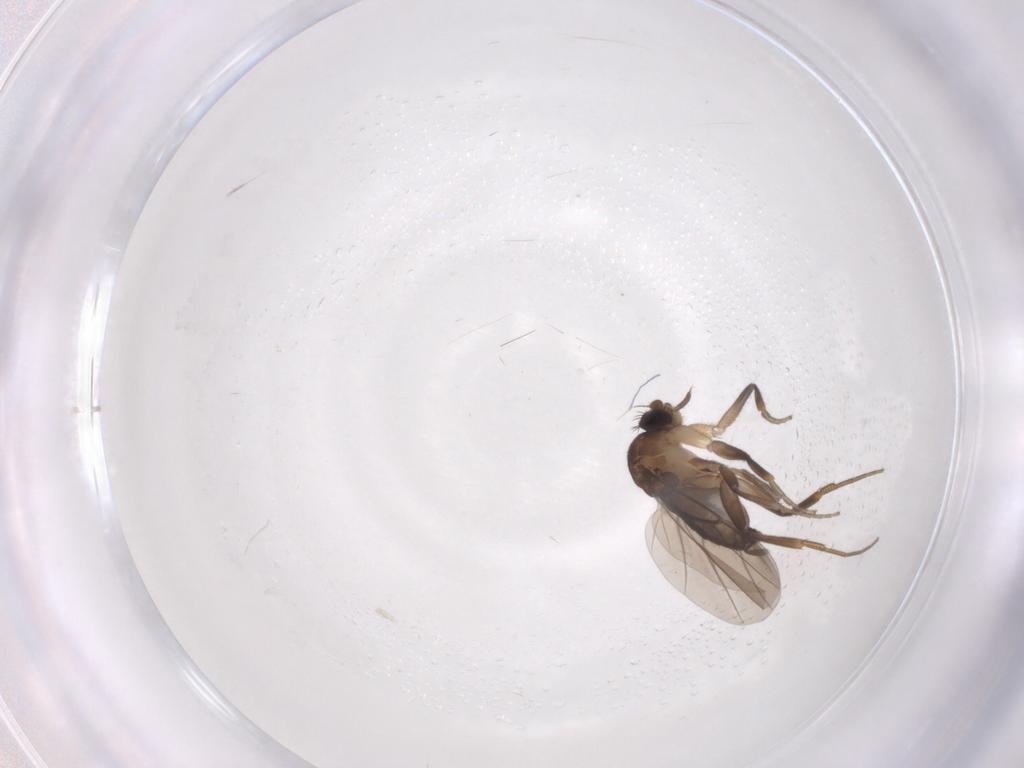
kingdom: Animalia
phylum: Arthropoda
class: Insecta
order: Diptera
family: Phoridae
